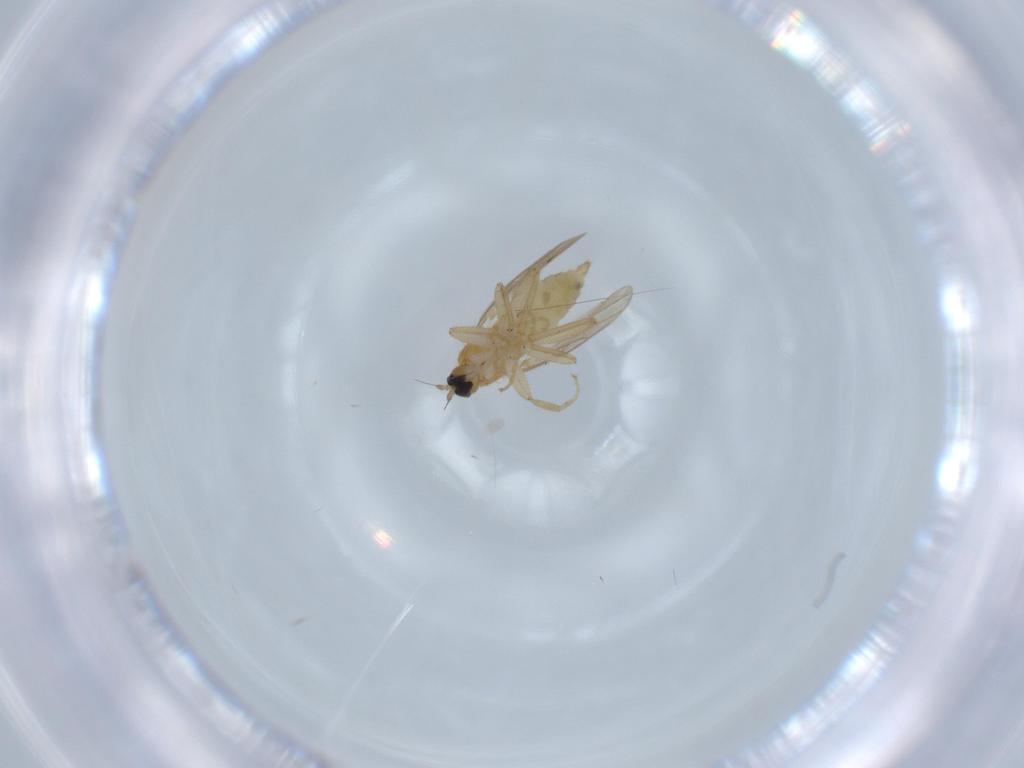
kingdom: Animalia
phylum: Arthropoda
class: Insecta
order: Diptera
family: Hybotidae
